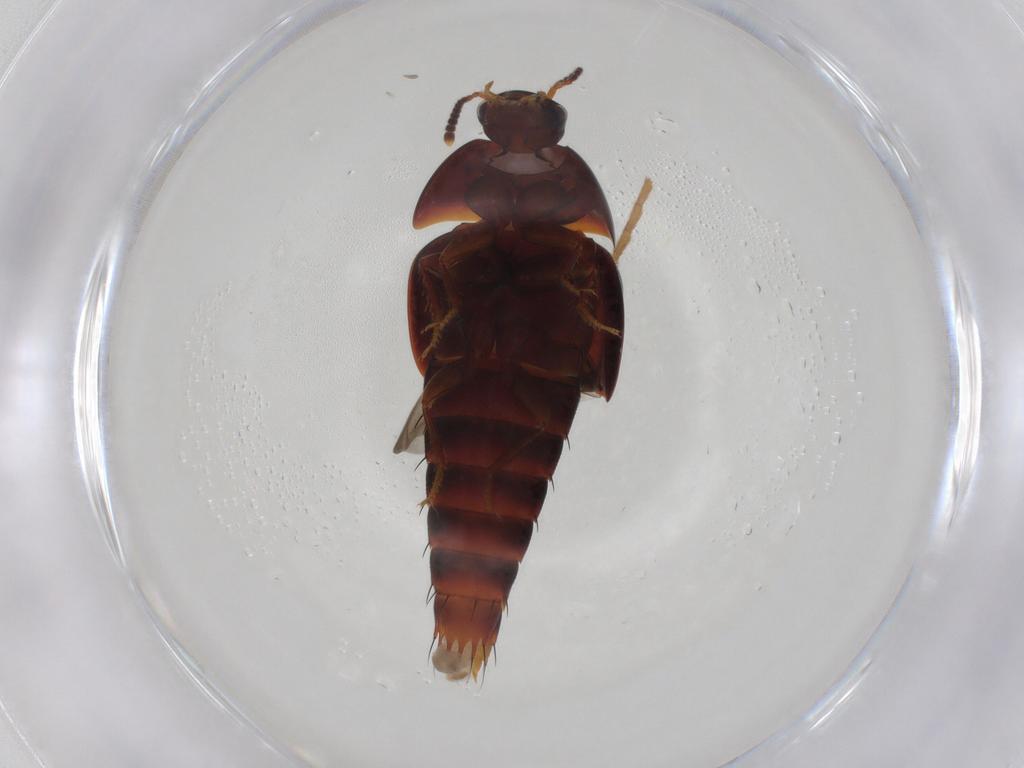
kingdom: Animalia
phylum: Arthropoda
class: Insecta
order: Coleoptera
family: Staphylinidae
